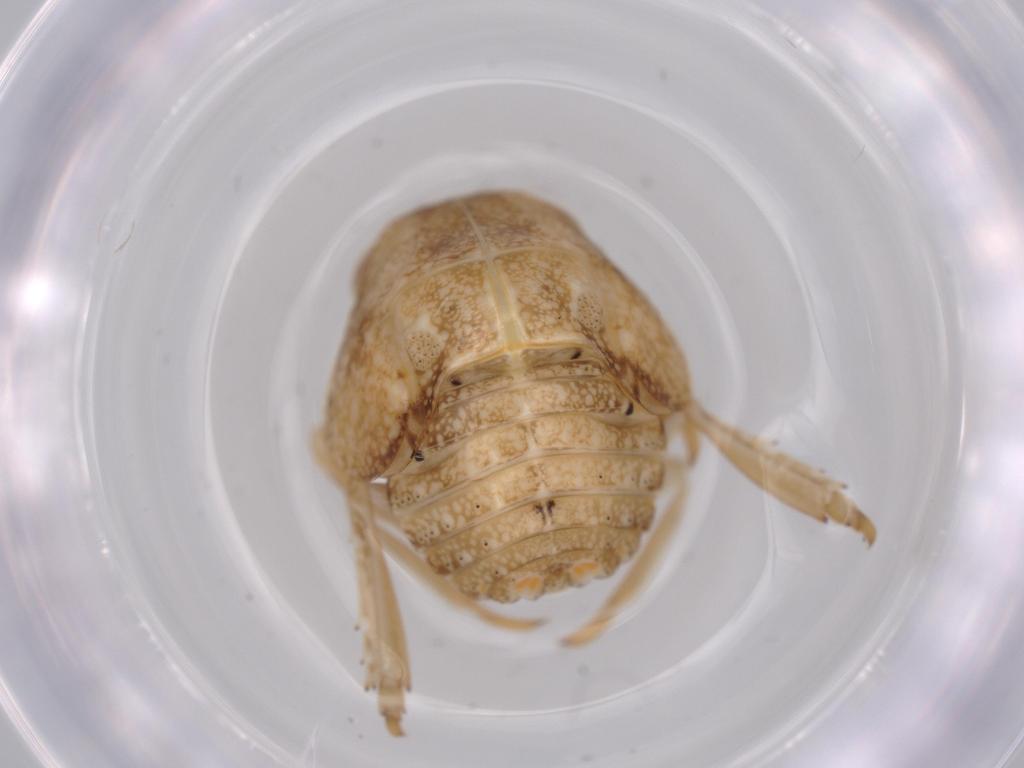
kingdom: Animalia
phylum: Arthropoda
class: Insecta
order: Hemiptera
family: Acanaloniidae
